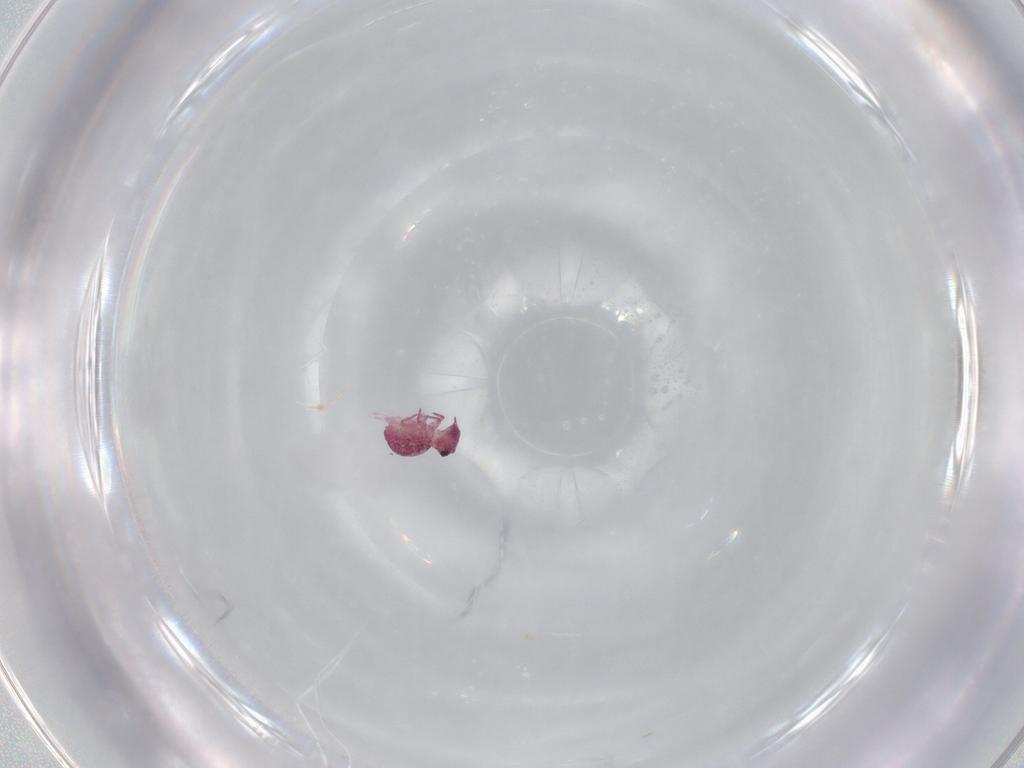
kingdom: Animalia
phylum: Arthropoda
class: Collembola
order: Symphypleona
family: Sminthurididae
